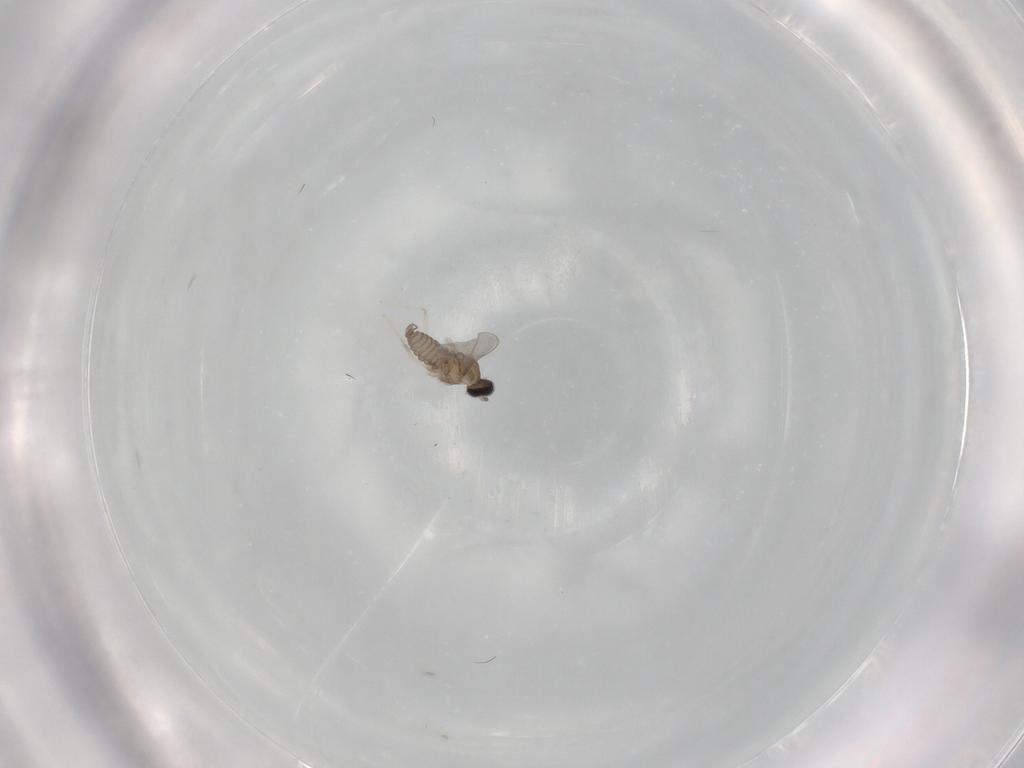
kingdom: Animalia
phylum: Arthropoda
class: Insecta
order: Diptera
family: Cecidomyiidae
